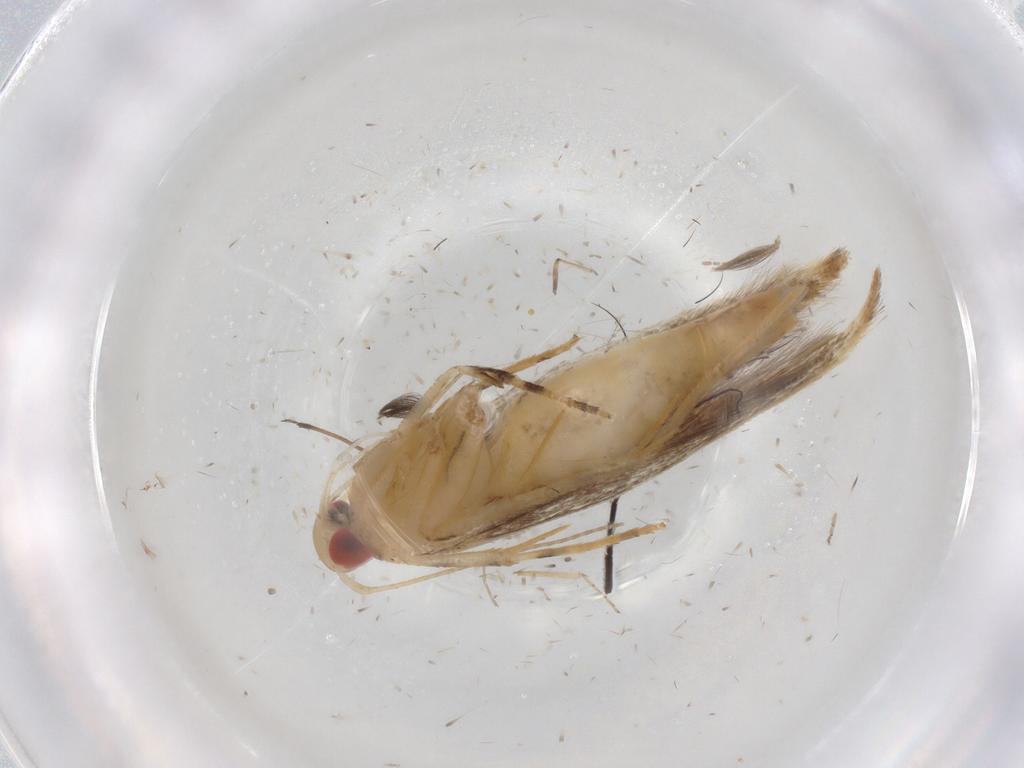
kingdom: Animalia
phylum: Arthropoda
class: Insecta
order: Lepidoptera
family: Cosmopterigidae
